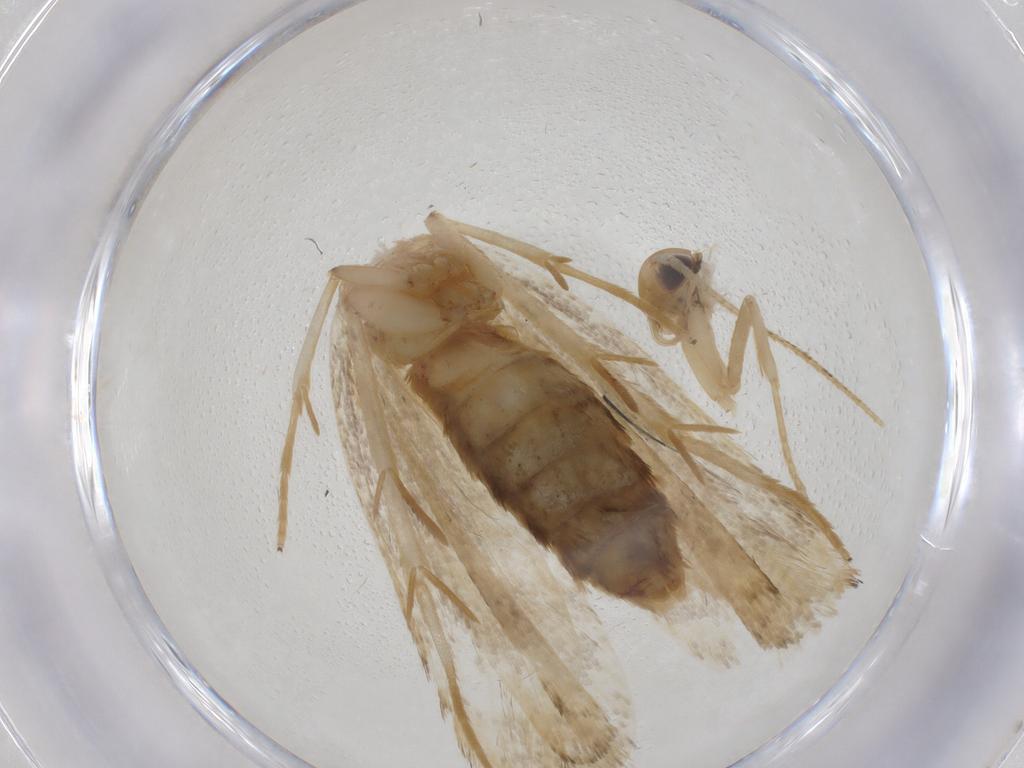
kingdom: Animalia
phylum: Arthropoda
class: Insecta
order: Lepidoptera
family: Lecithoceridae
